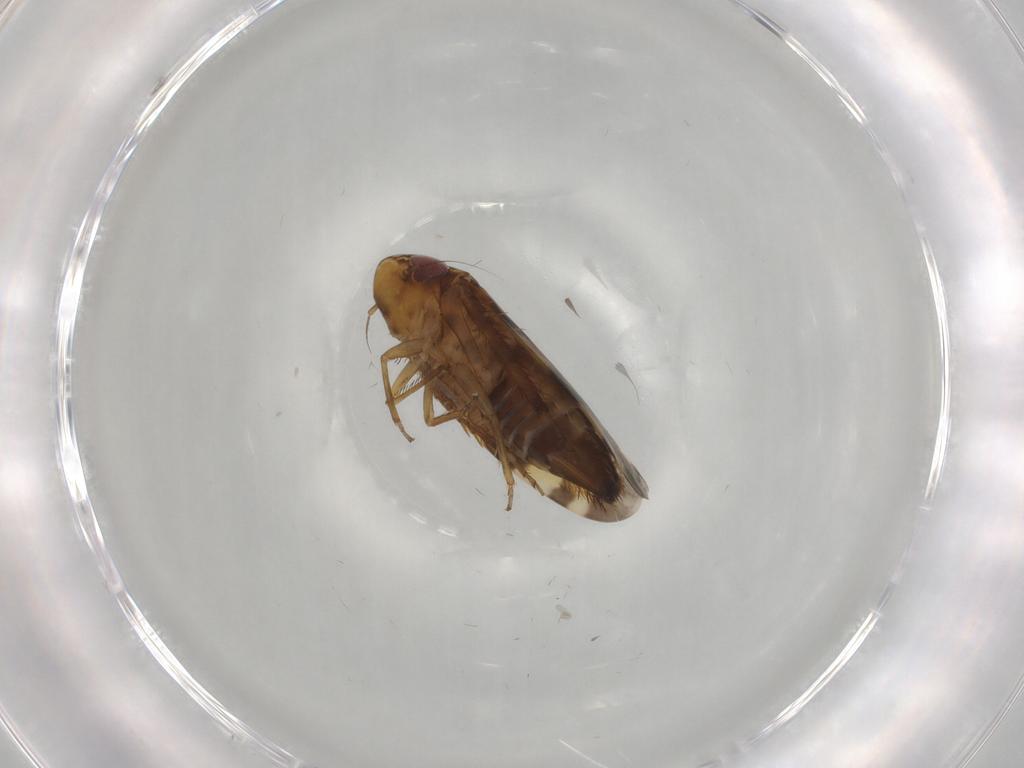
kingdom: Animalia
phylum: Arthropoda
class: Insecta
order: Hemiptera
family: Cicadellidae
